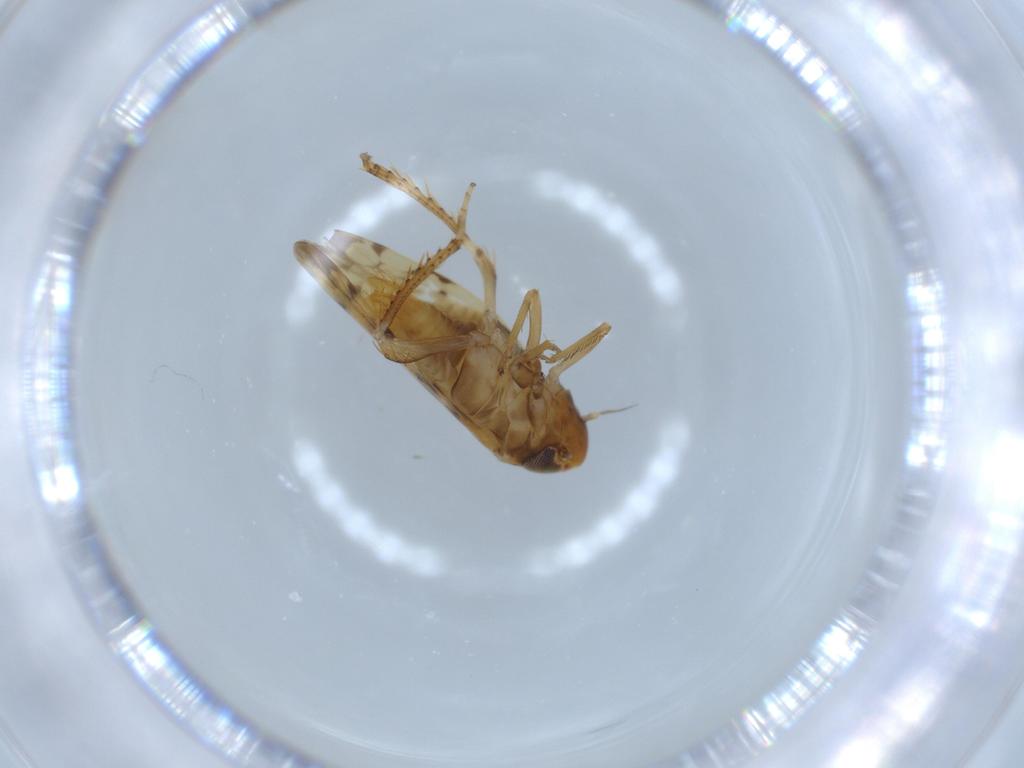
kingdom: Animalia
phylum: Arthropoda
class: Insecta
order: Hemiptera
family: Cicadellidae
